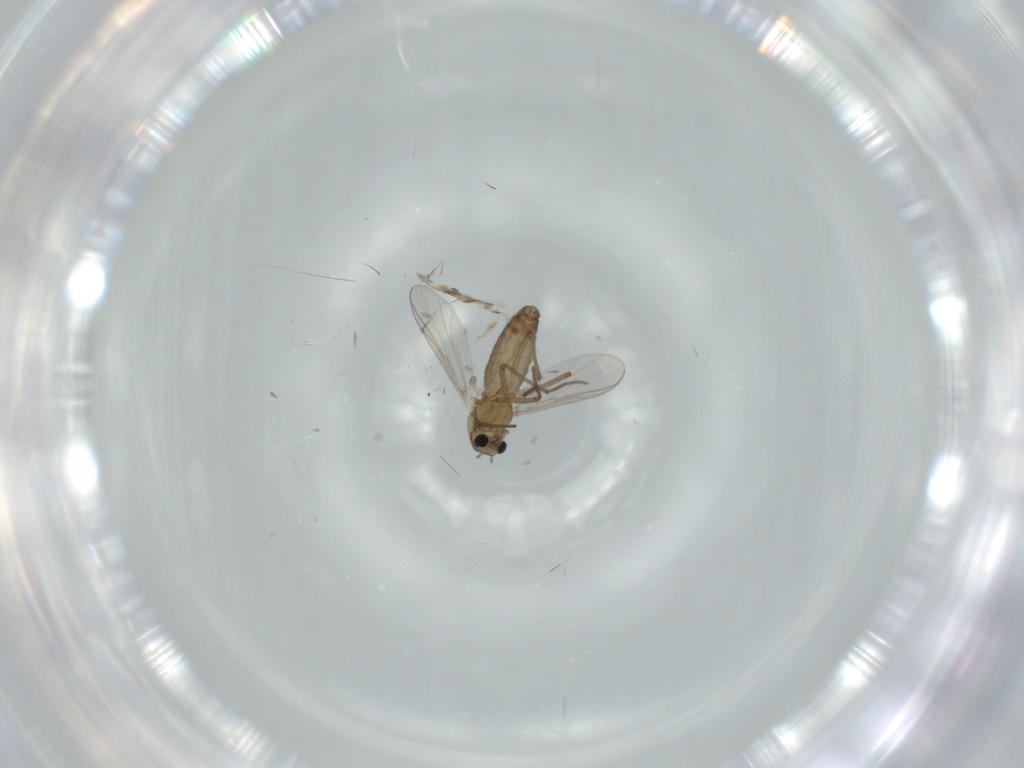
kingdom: Animalia
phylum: Arthropoda
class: Insecta
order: Diptera
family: Chironomidae
